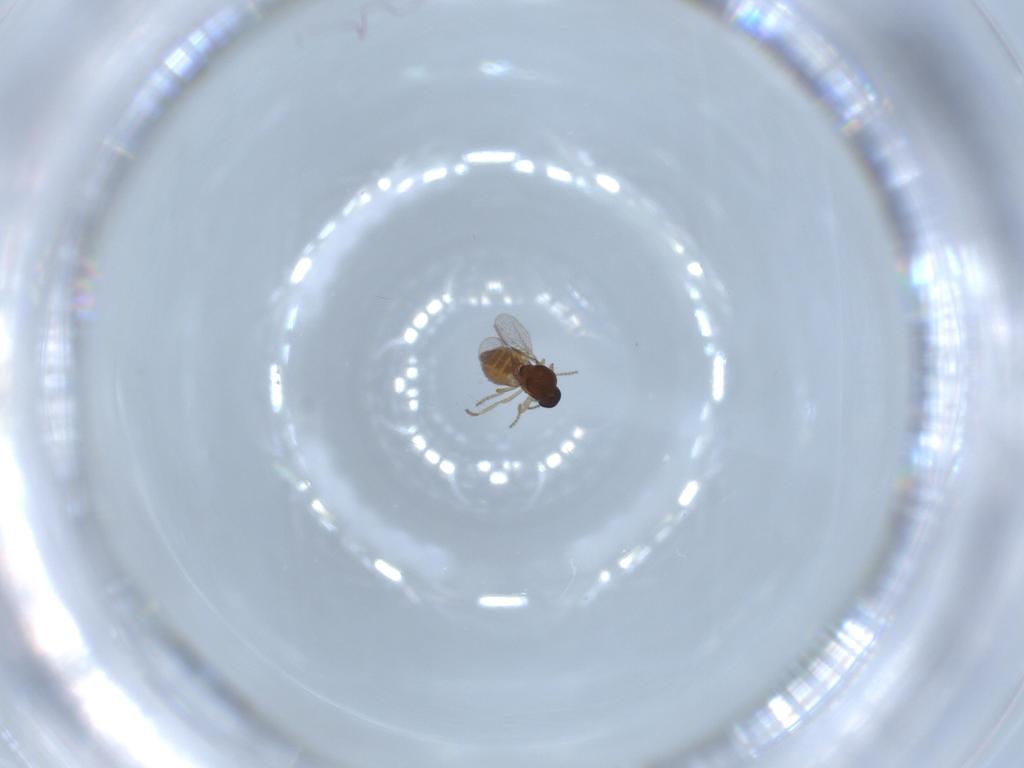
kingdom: Animalia
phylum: Arthropoda
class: Insecta
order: Diptera
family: Ceratopogonidae
